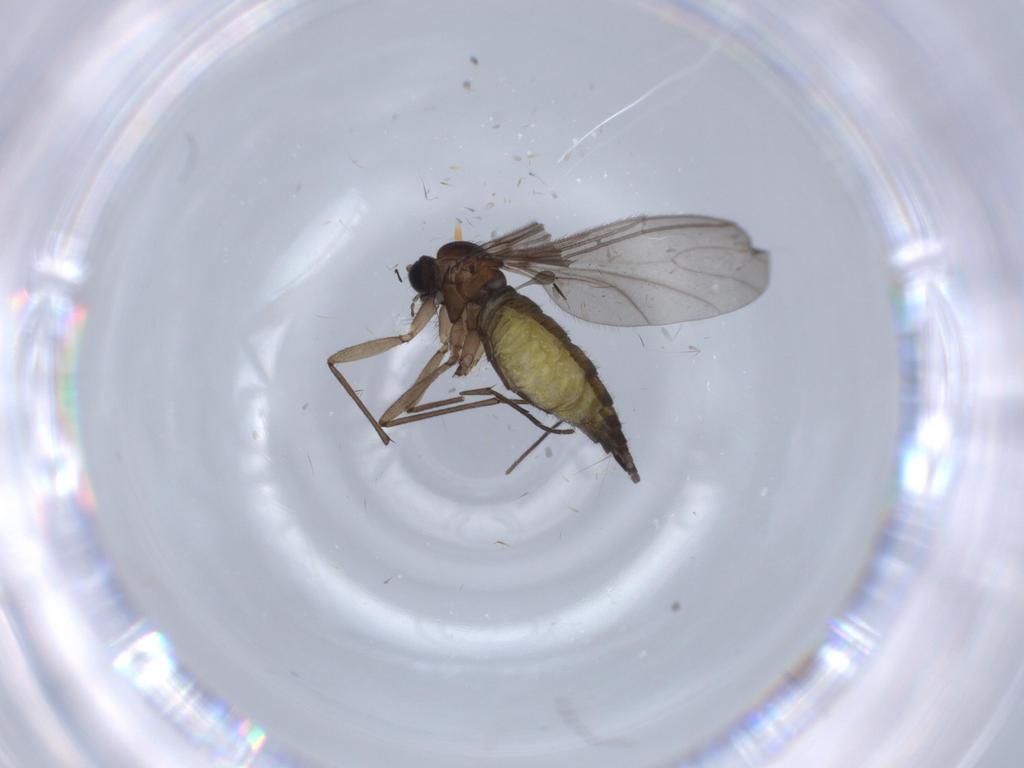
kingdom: Animalia
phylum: Arthropoda
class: Insecta
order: Diptera
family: Sciaridae
